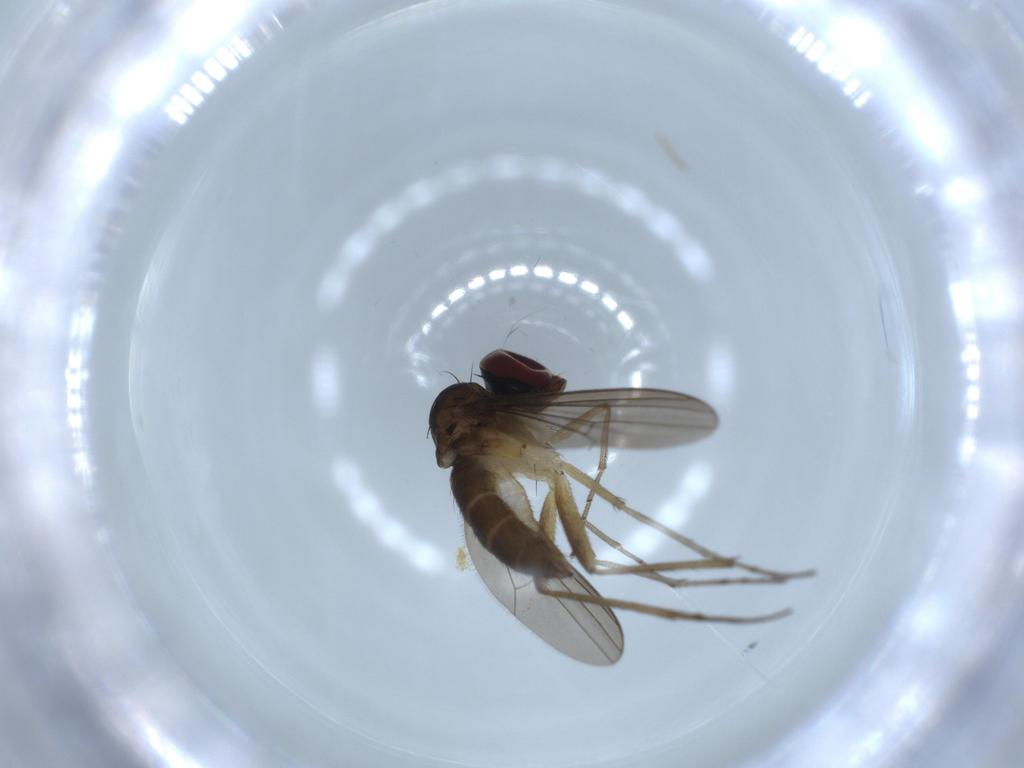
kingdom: Animalia
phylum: Arthropoda
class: Insecta
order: Diptera
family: Dolichopodidae
